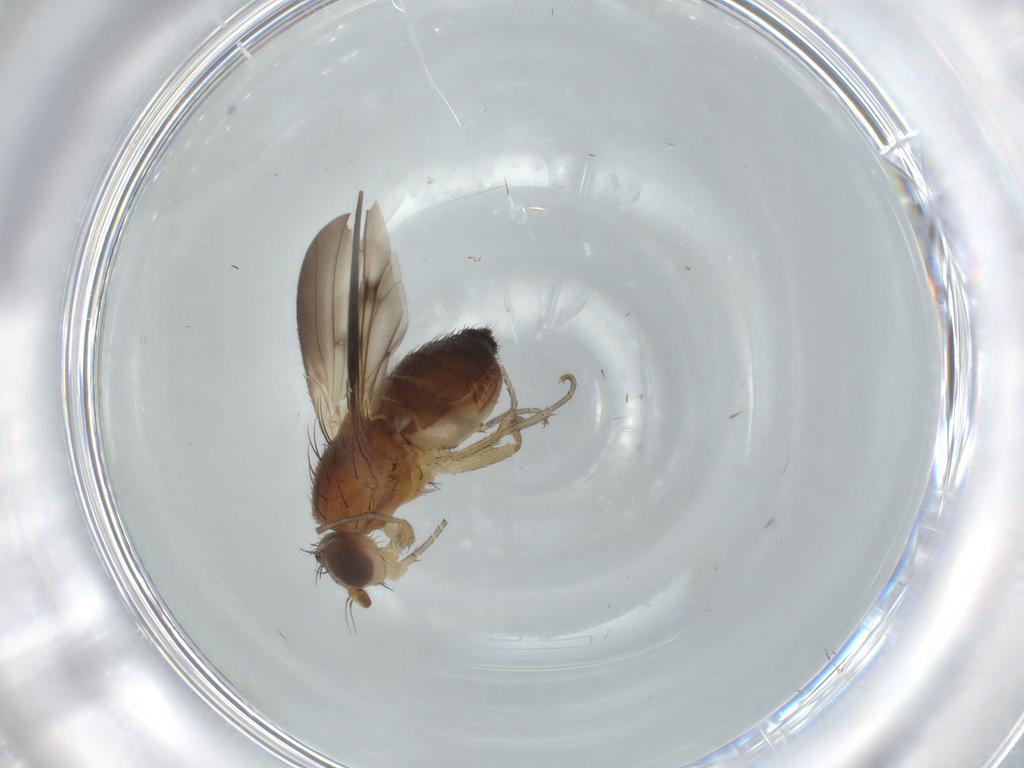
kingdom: Animalia
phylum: Arthropoda
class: Insecta
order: Diptera
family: Heleomyzidae
